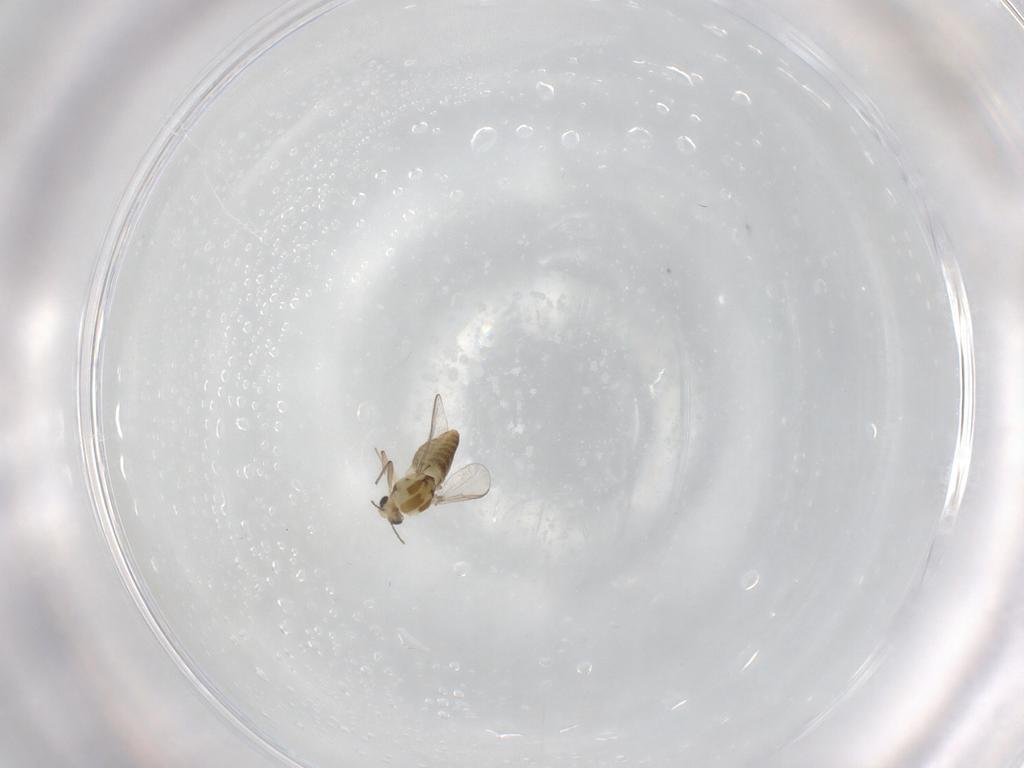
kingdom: Animalia
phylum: Arthropoda
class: Insecta
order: Diptera
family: Chironomidae
